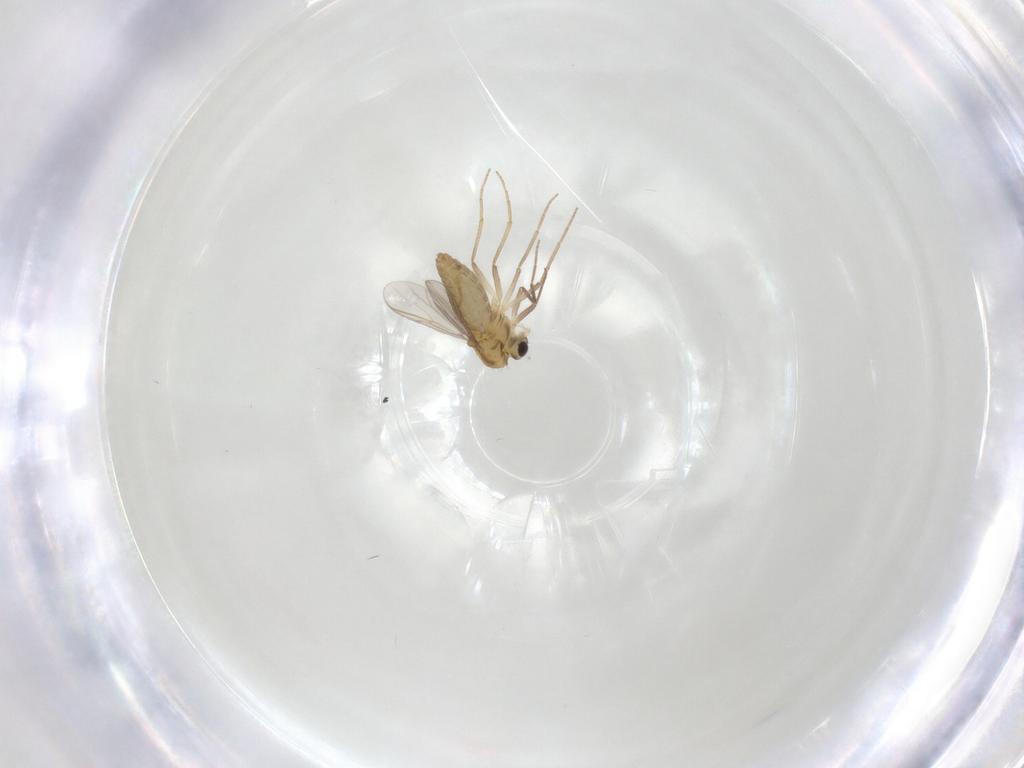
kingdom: Animalia
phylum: Arthropoda
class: Insecta
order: Diptera
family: Chironomidae
